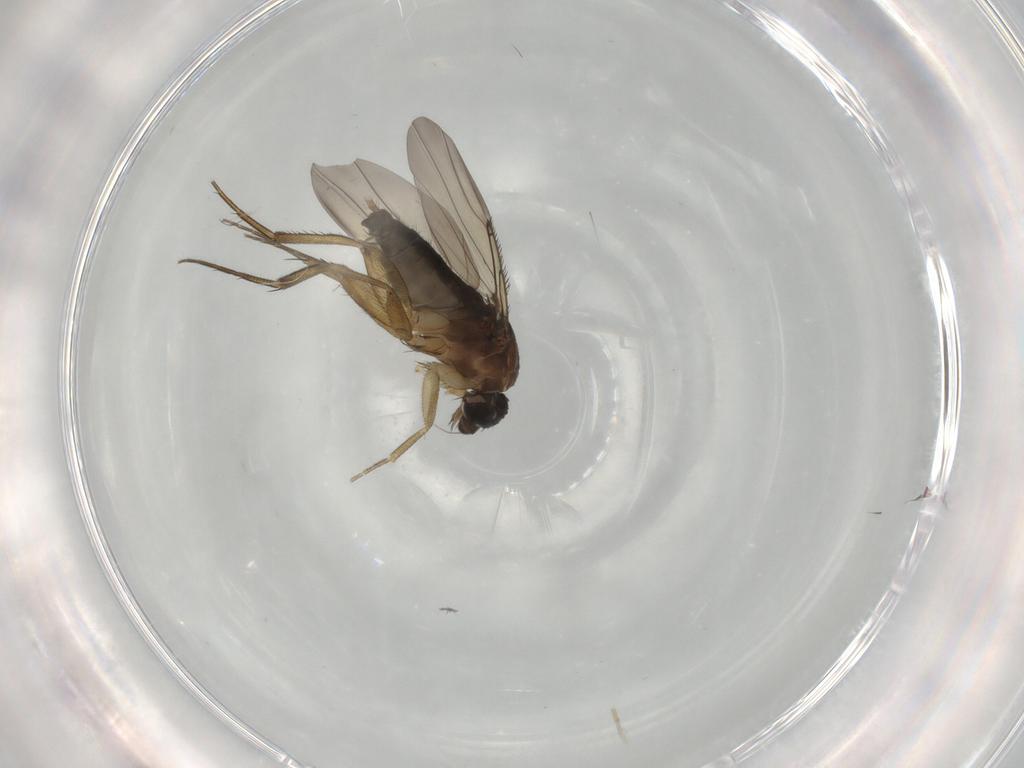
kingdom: Animalia
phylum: Arthropoda
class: Insecta
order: Diptera
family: Phoridae
